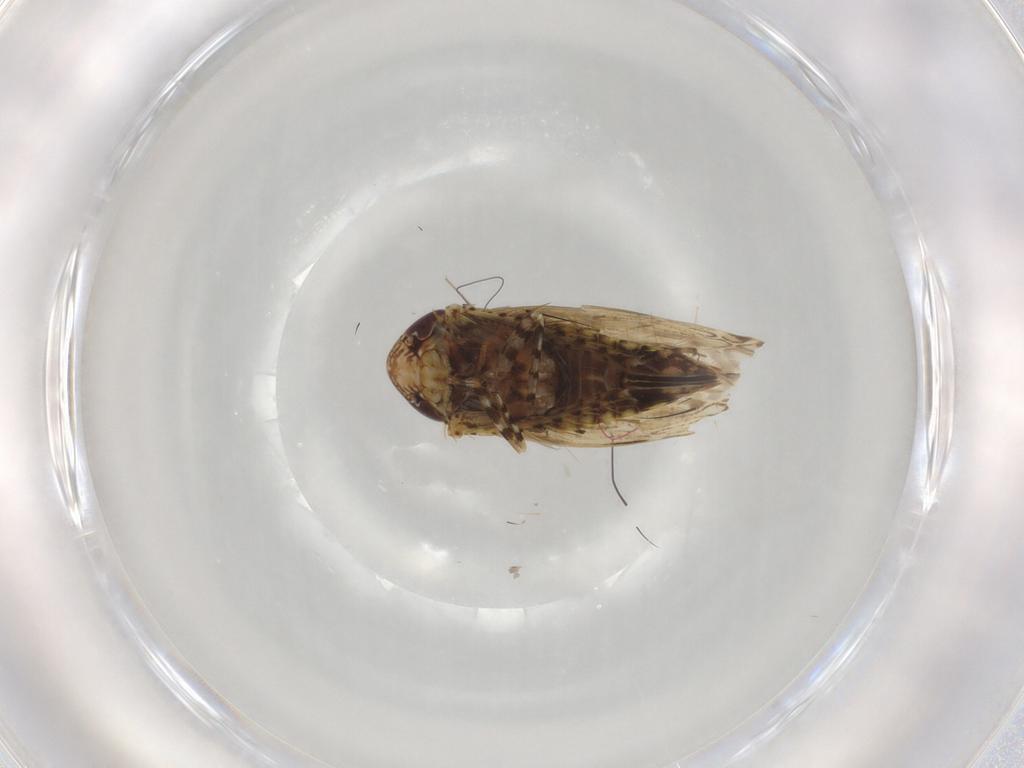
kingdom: Animalia
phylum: Arthropoda
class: Insecta
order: Hemiptera
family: Cicadellidae
